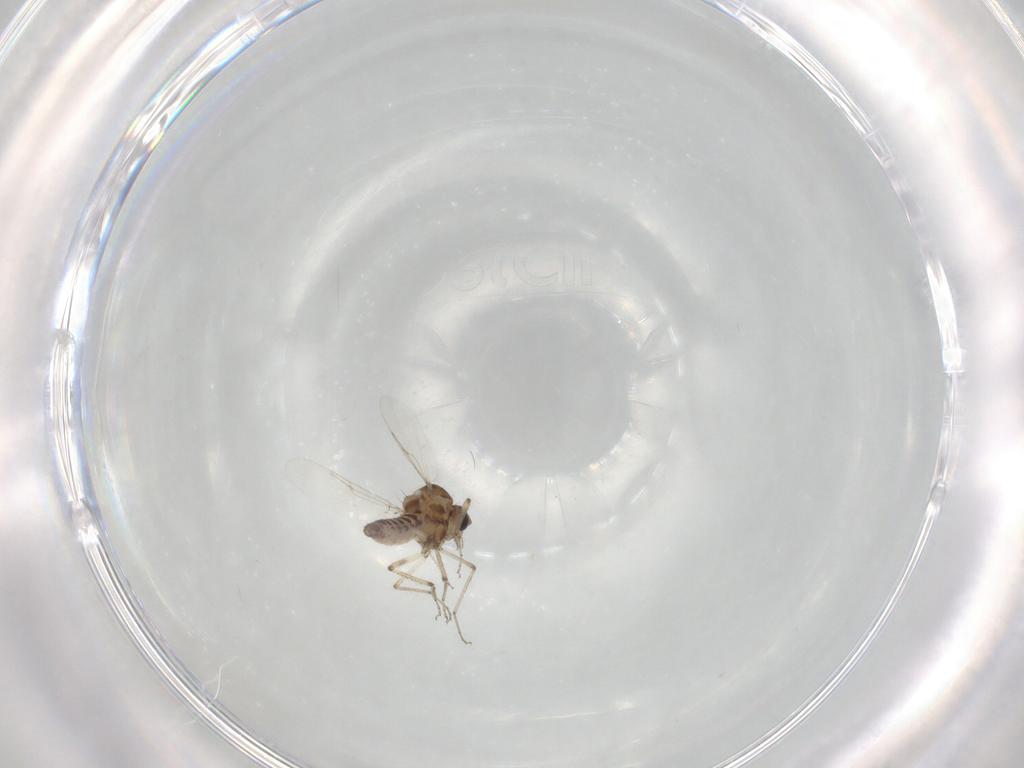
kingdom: Animalia
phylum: Arthropoda
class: Insecta
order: Diptera
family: Ceratopogonidae
